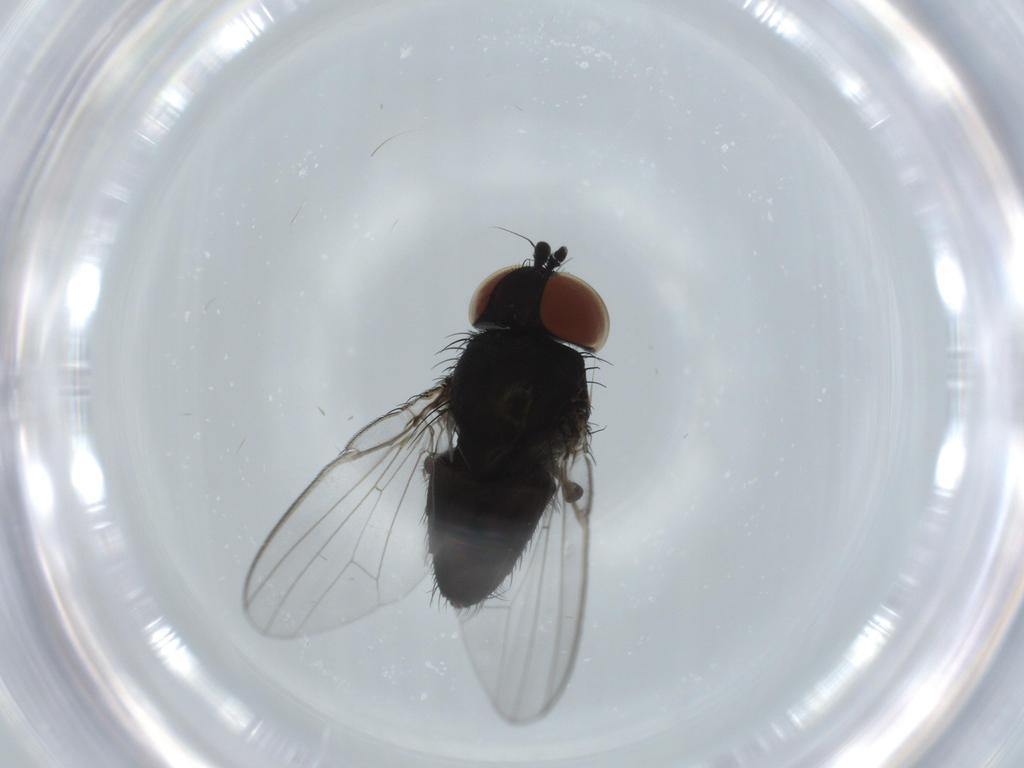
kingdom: Animalia
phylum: Arthropoda
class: Insecta
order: Diptera
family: Milichiidae
